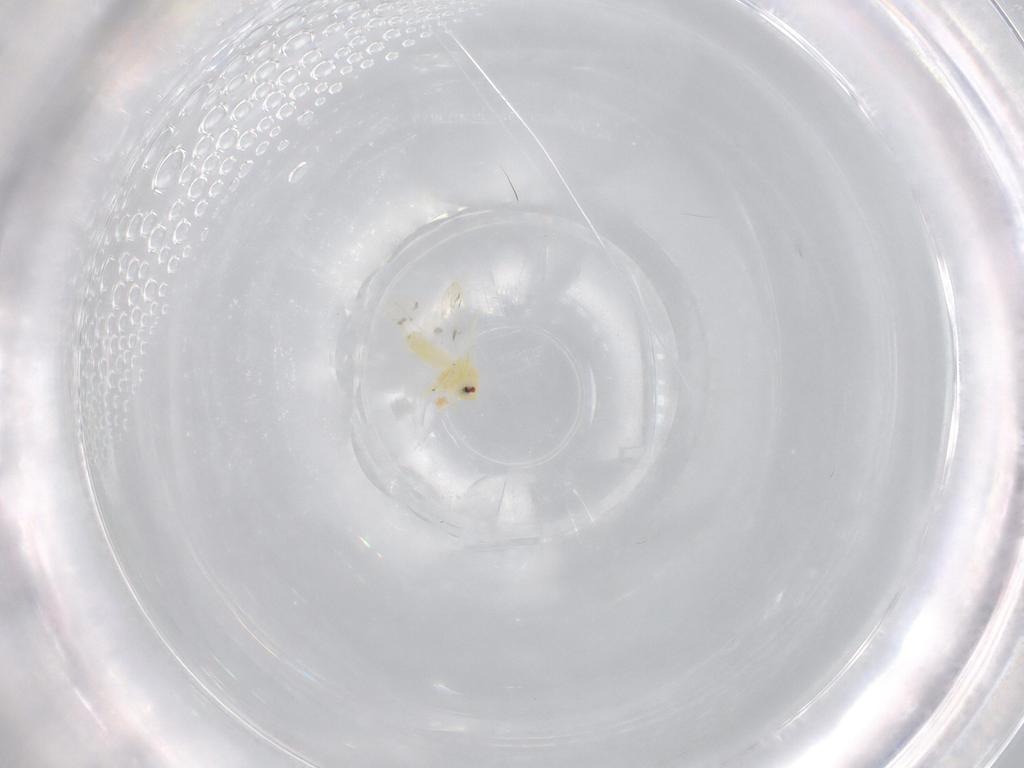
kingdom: Animalia
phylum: Arthropoda
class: Insecta
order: Hemiptera
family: Aleyrodidae
